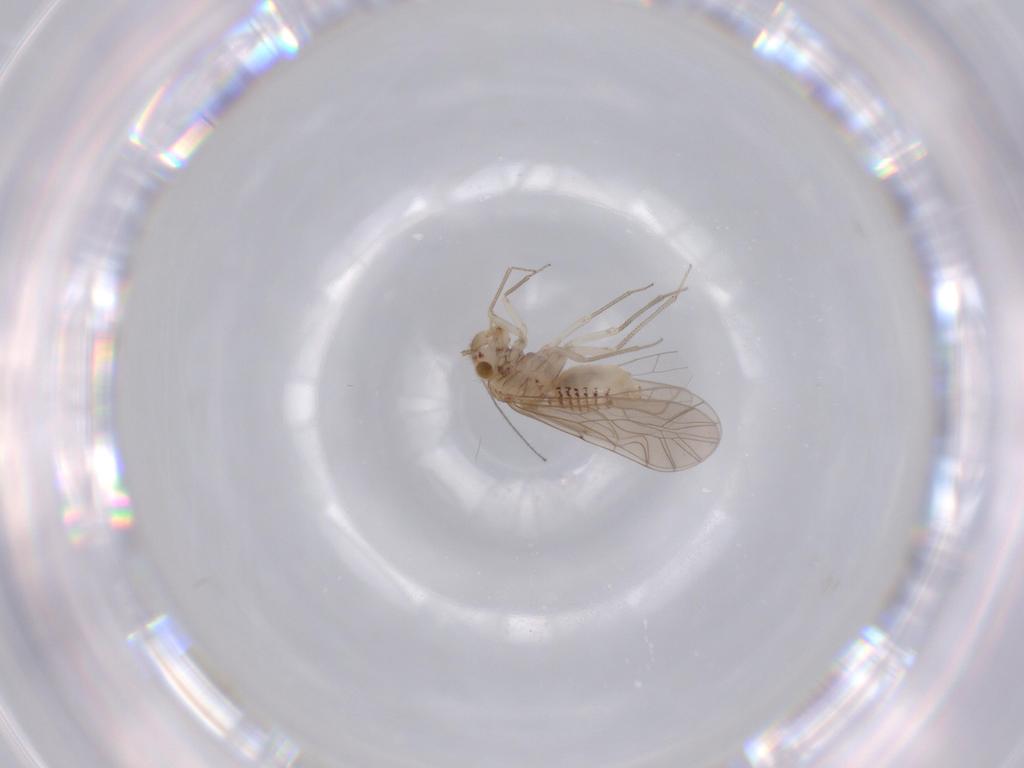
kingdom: Animalia
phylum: Arthropoda
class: Insecta
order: Psocodea
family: Lachesillidae
